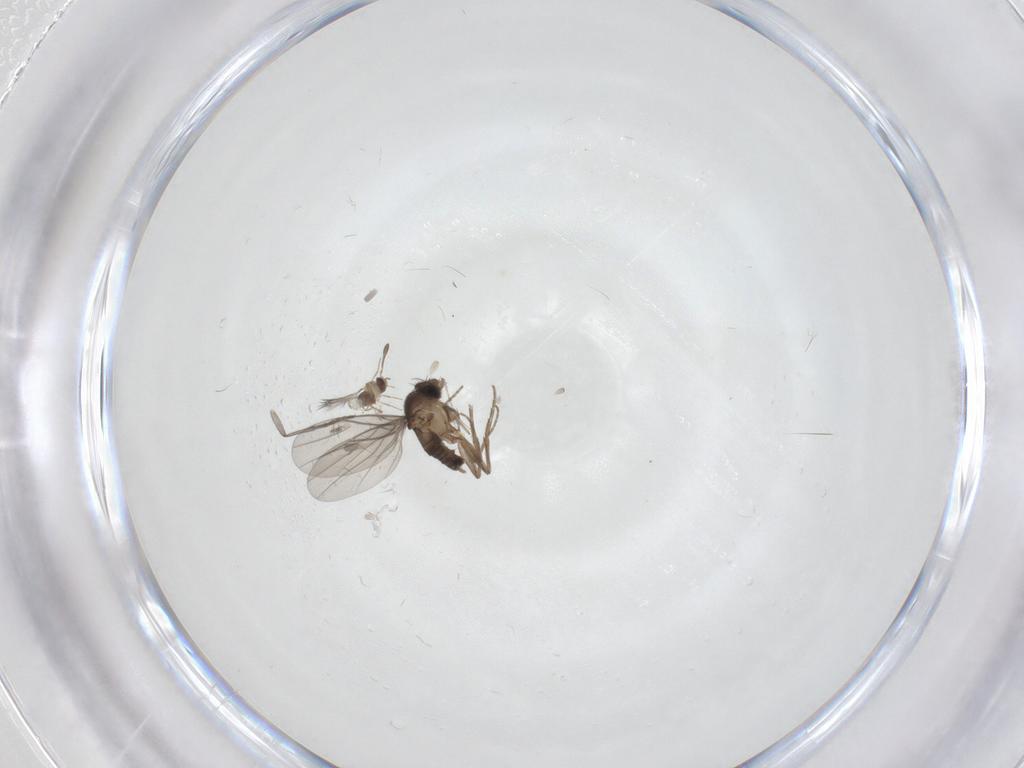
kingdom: Animalia
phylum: Arthropoda
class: Insecta
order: Diptera
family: Sciaridae
